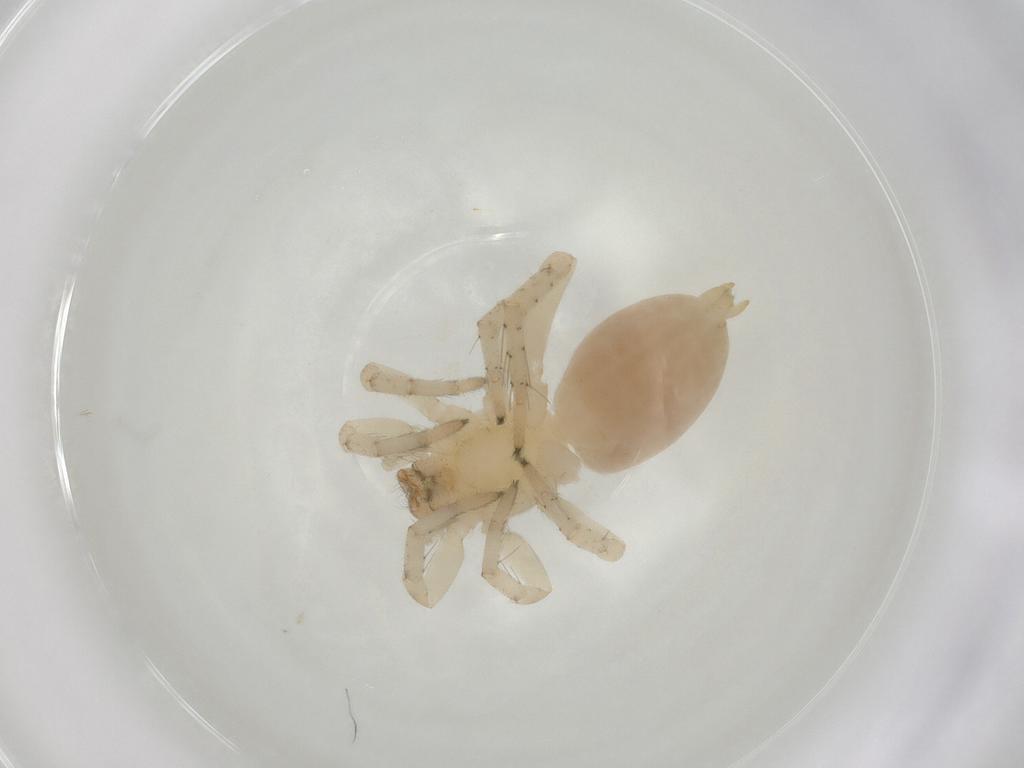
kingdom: Animalia
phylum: Arthropoda
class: Arachnida
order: Araneae
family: Clubionidae
